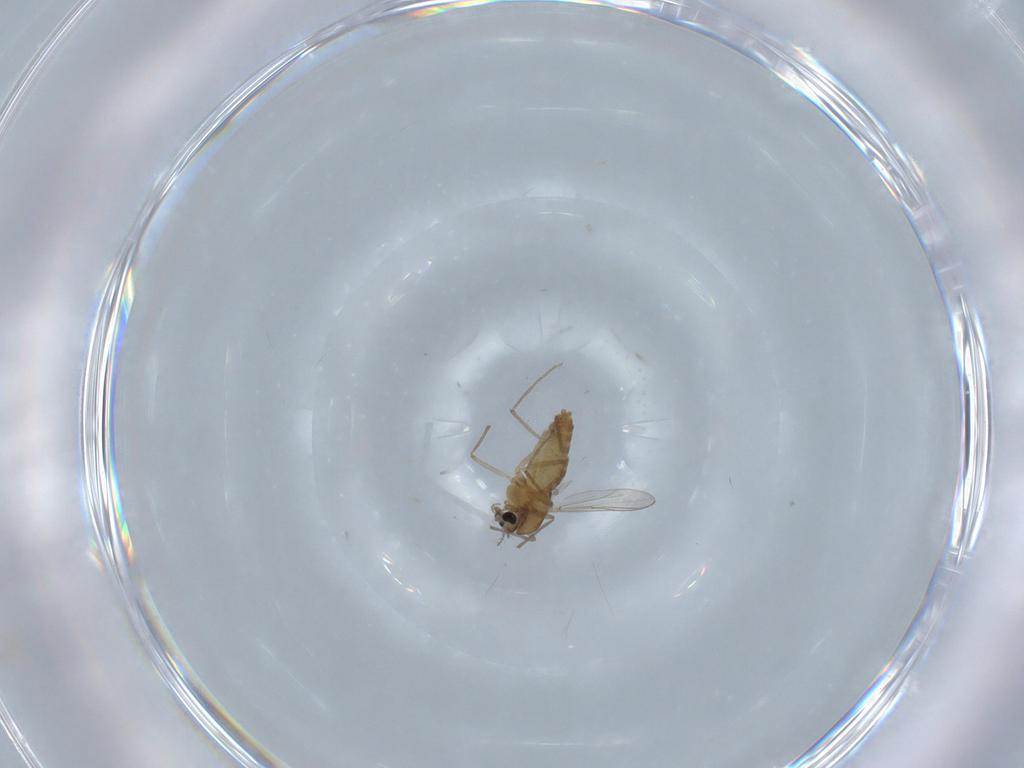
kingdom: Animalia
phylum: Arthropoda
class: Insecta
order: Diptera
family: Chironomidae
